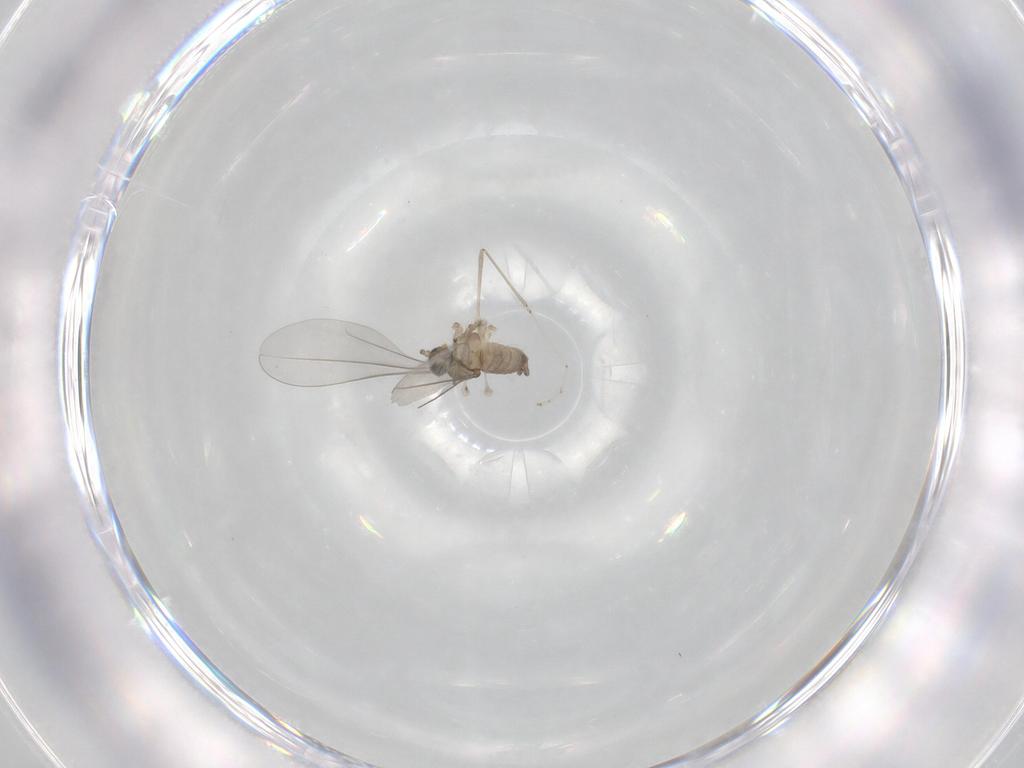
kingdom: Animalia
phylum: Arthropoda
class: Insecta
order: Diptera
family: Cecidomyiidae
